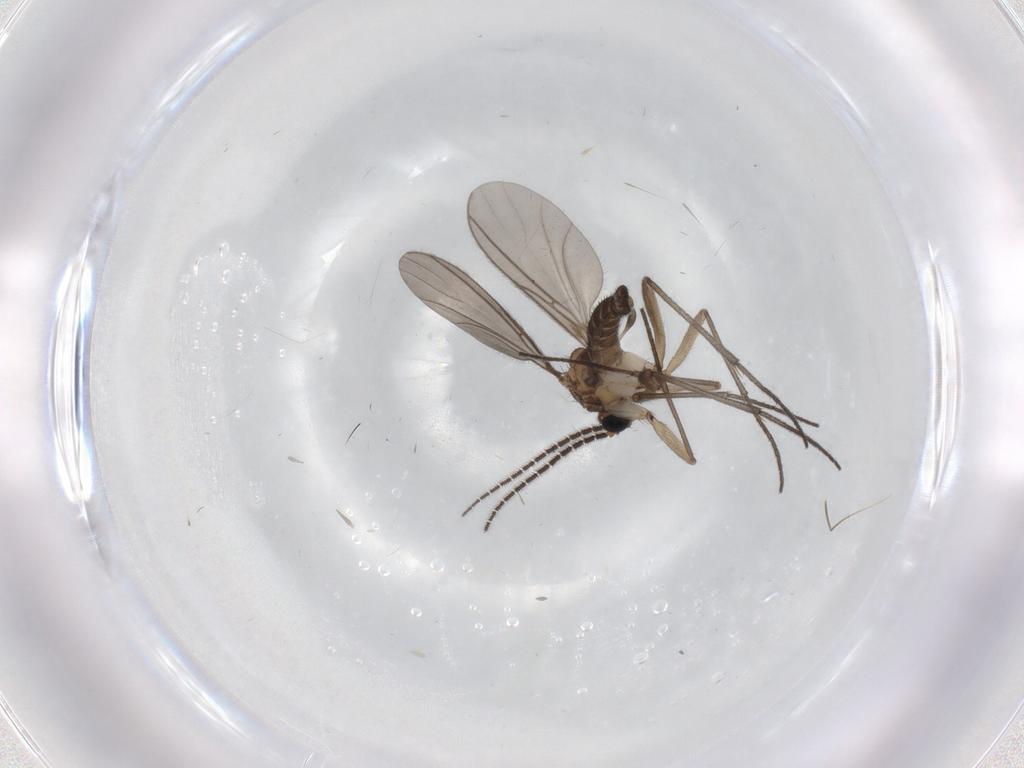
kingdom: Animalia
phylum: Arthropoda
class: Insecta
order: Diptera
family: Sciaridae
